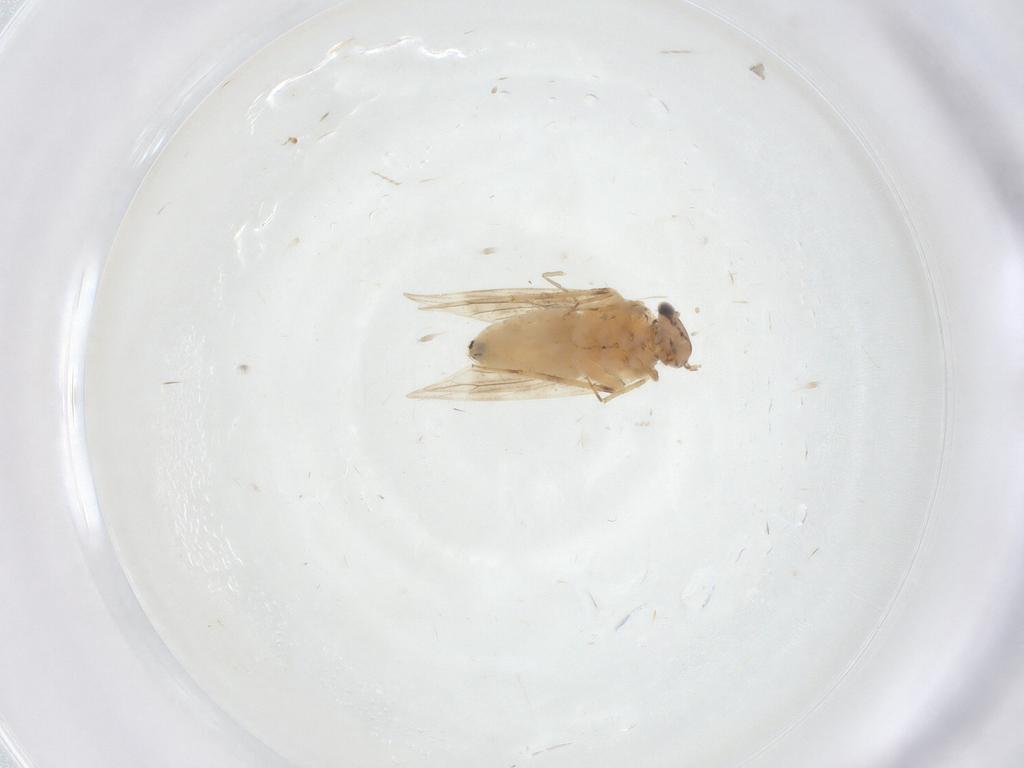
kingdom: Animalia
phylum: Arthropoda
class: Insecta
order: Psocodea
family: Lepidopsocidae
